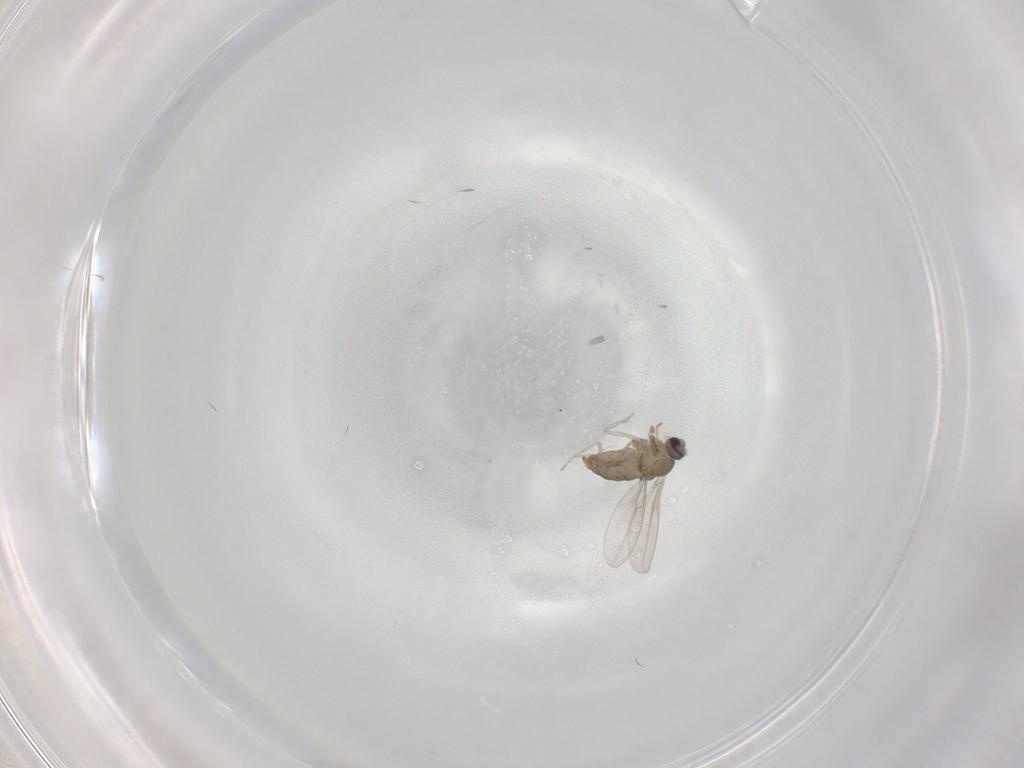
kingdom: Animalia
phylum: Arthropoda
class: Insecta
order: Diptera
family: Cecidomyiidae
